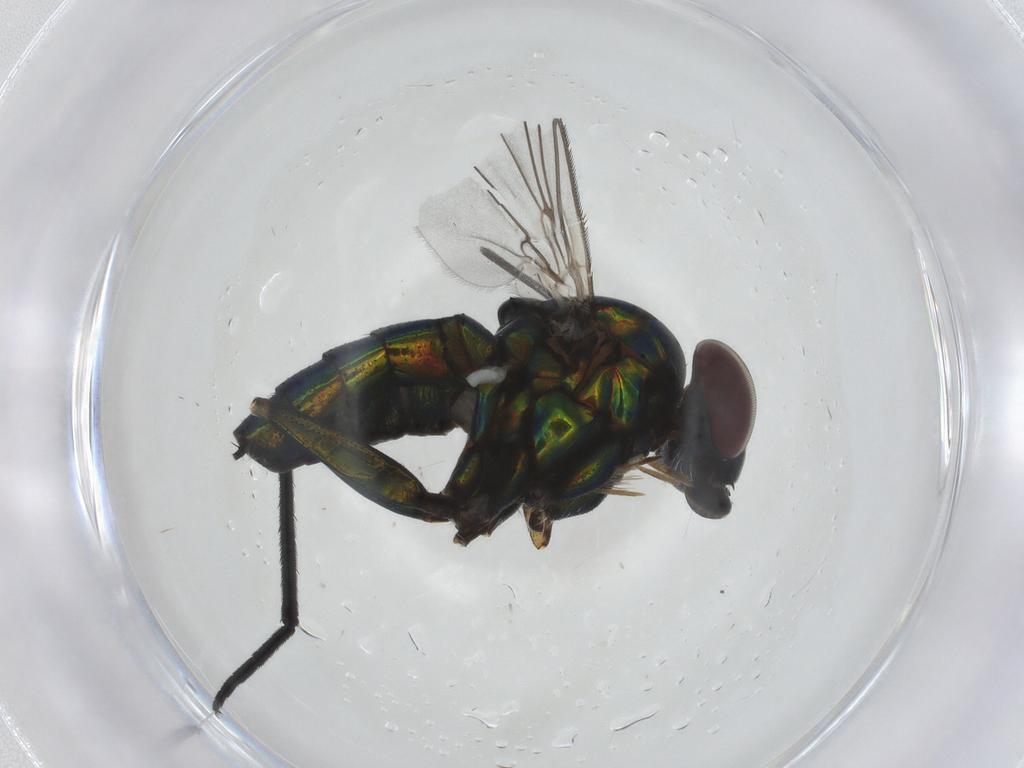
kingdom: Animalia
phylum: Arthropoda
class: Insecta
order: Diptera
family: Dolichopodidae
